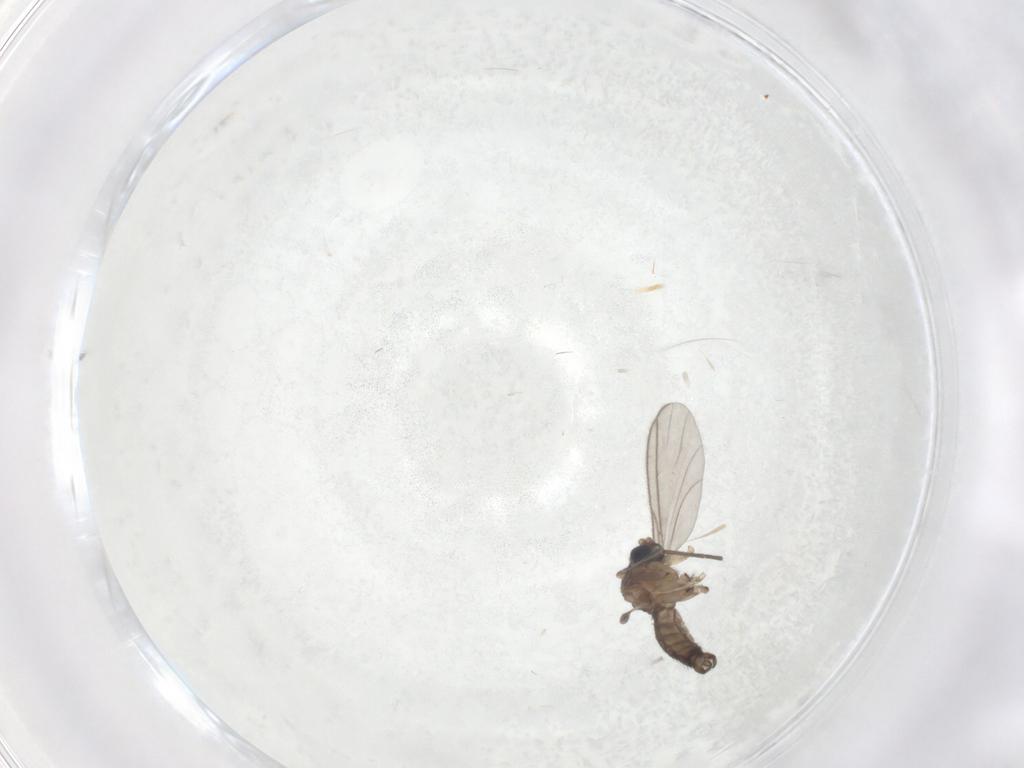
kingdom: Animalia
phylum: Arthropoda
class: Insecta
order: Diptera
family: Sciaridae
